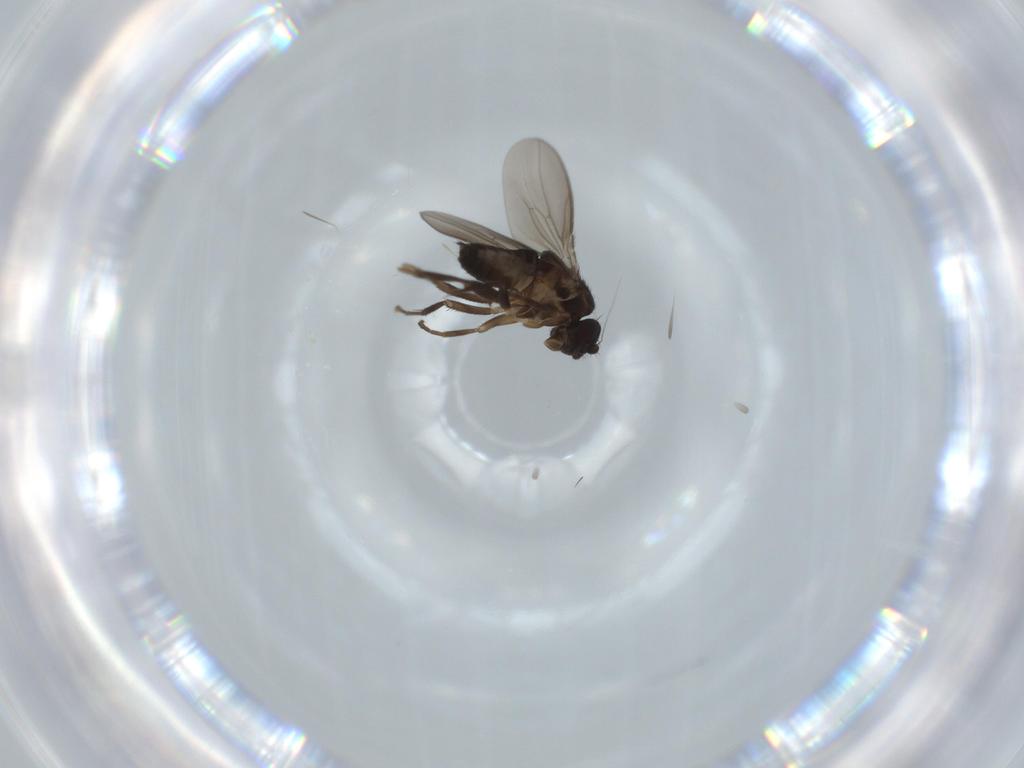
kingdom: Animalia
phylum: Arthropoda
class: Insecta
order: Diptera
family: Sphaeroceridae
